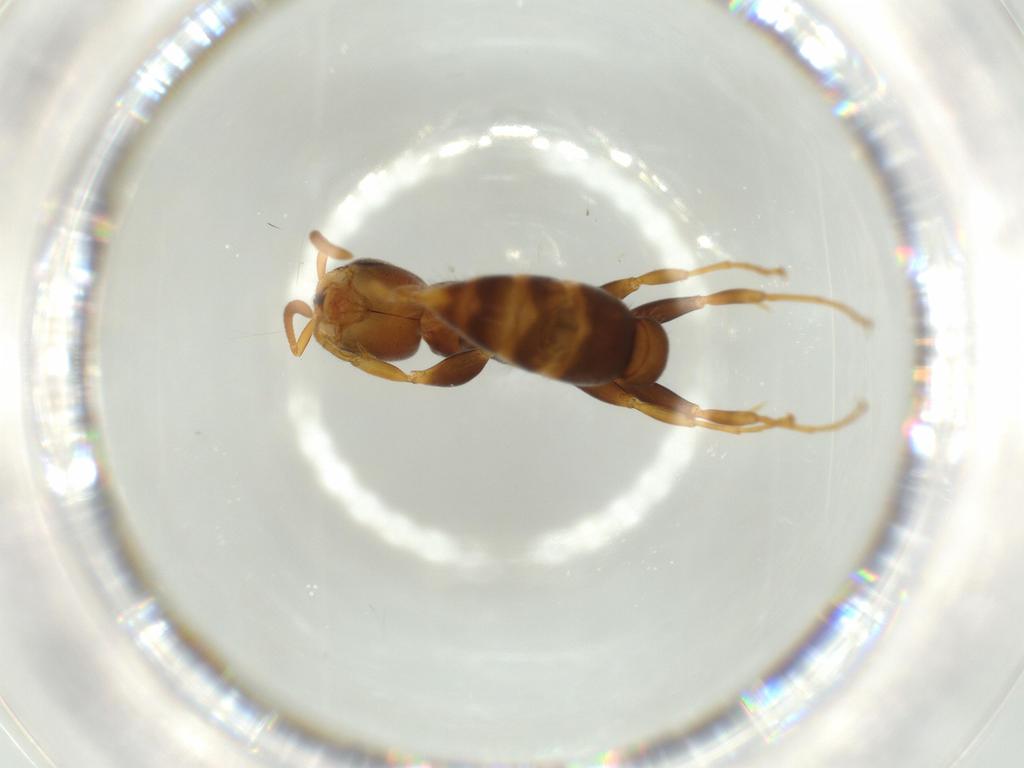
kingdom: Animalia
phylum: Arthropoda
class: Insecta
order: Hymenoptera
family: Formicidae
